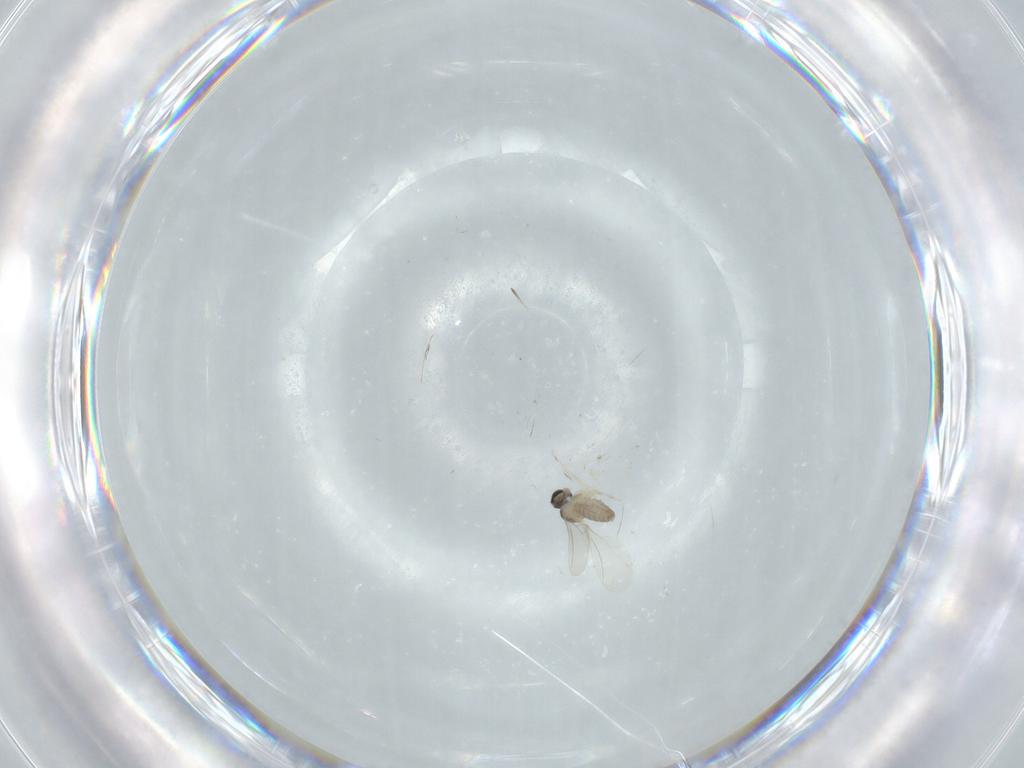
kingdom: Animalia
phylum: Arthropoda
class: Insecta
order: Diptera
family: Cecidomyiidae
